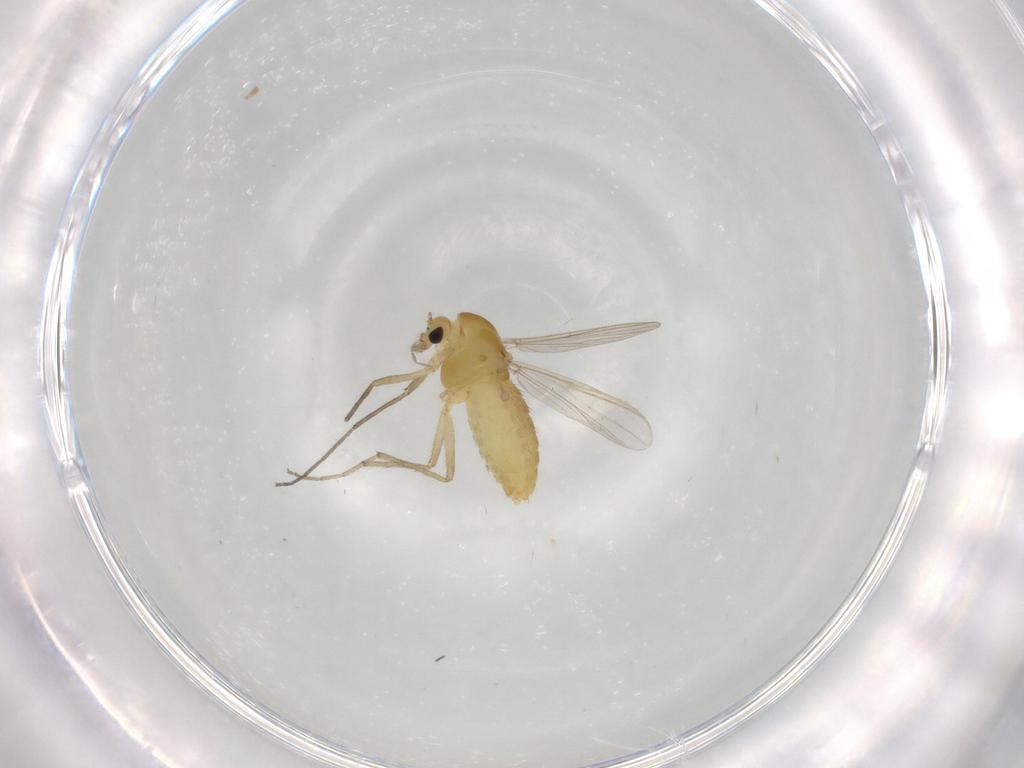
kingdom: Animalia
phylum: Arthropoda
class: Insecta
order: Diptera
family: Chironomidae
